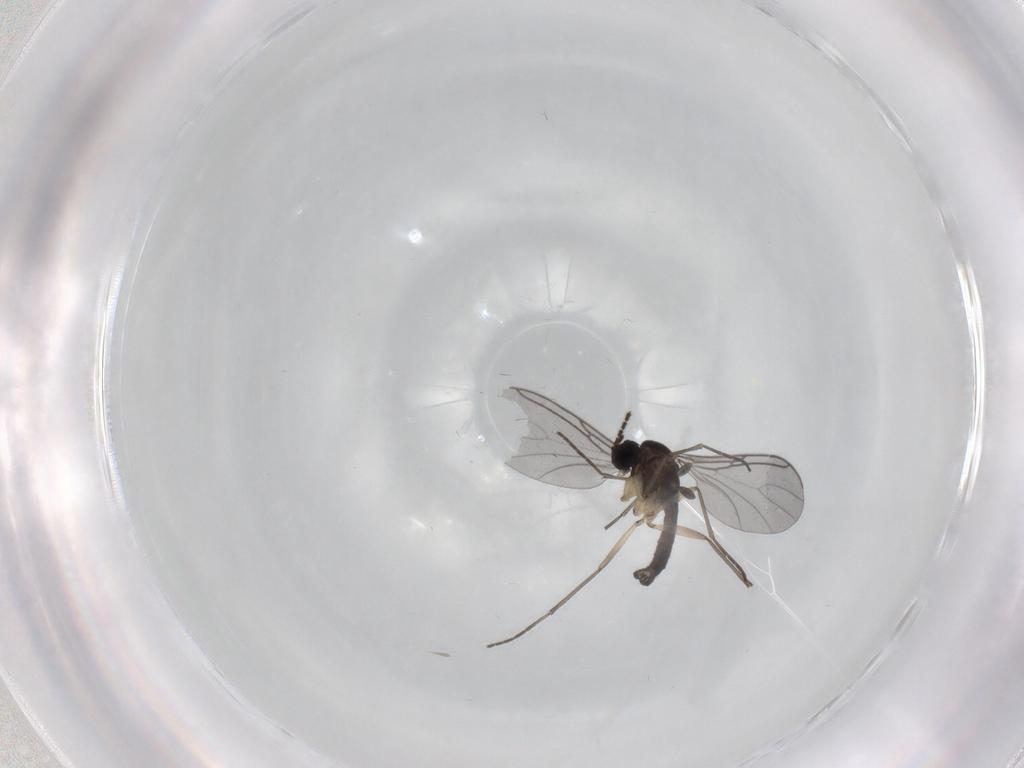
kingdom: Animalia
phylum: Arthropoda
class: Insecta
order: Diptera
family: Sciaridae
